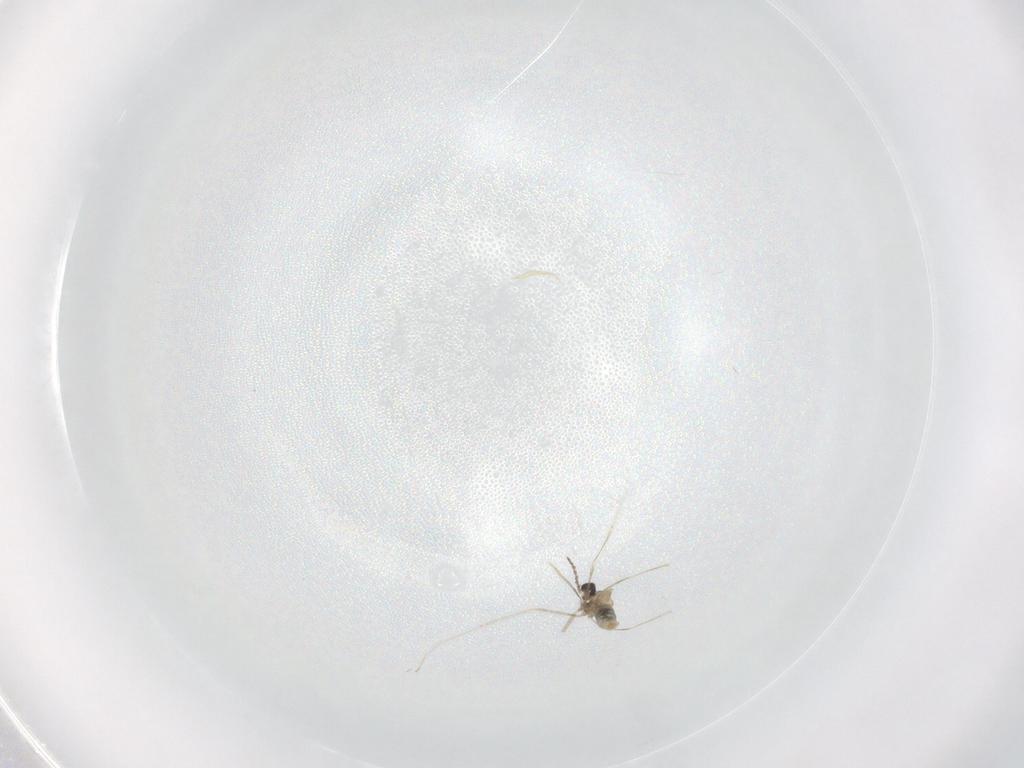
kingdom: Animalia
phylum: Arthropoda
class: Insecta
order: Diptera
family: Cecidomyiidae
